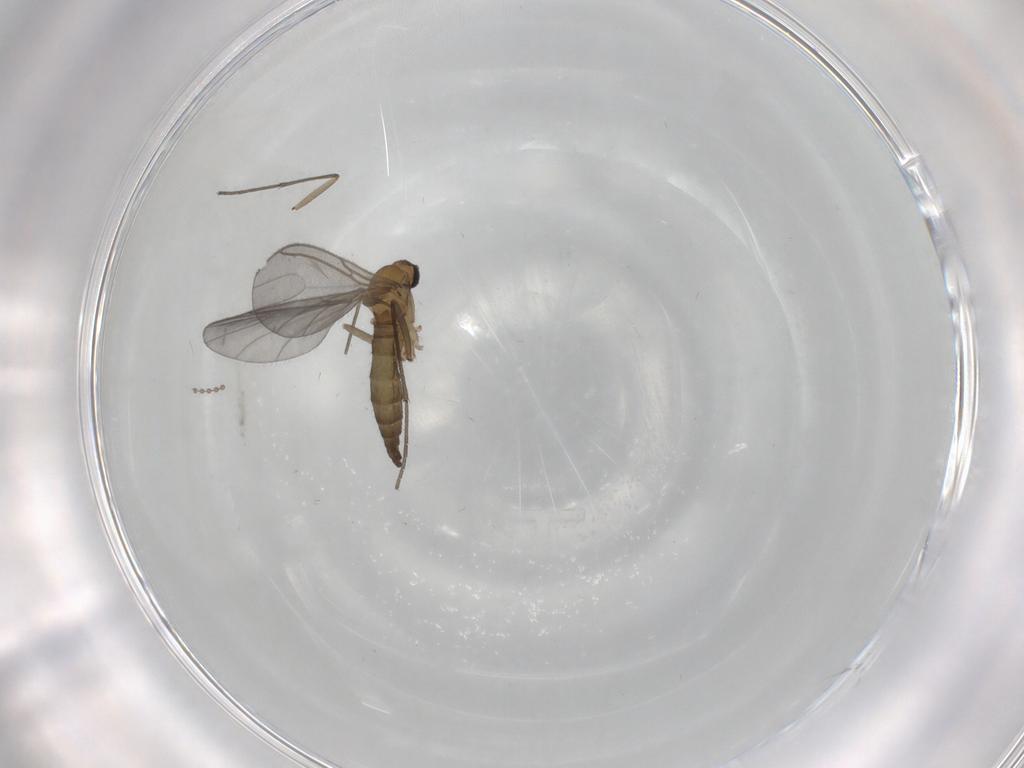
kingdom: Animalia
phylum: Arthropoda
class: Insecta
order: Diptera
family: Sciaridae
